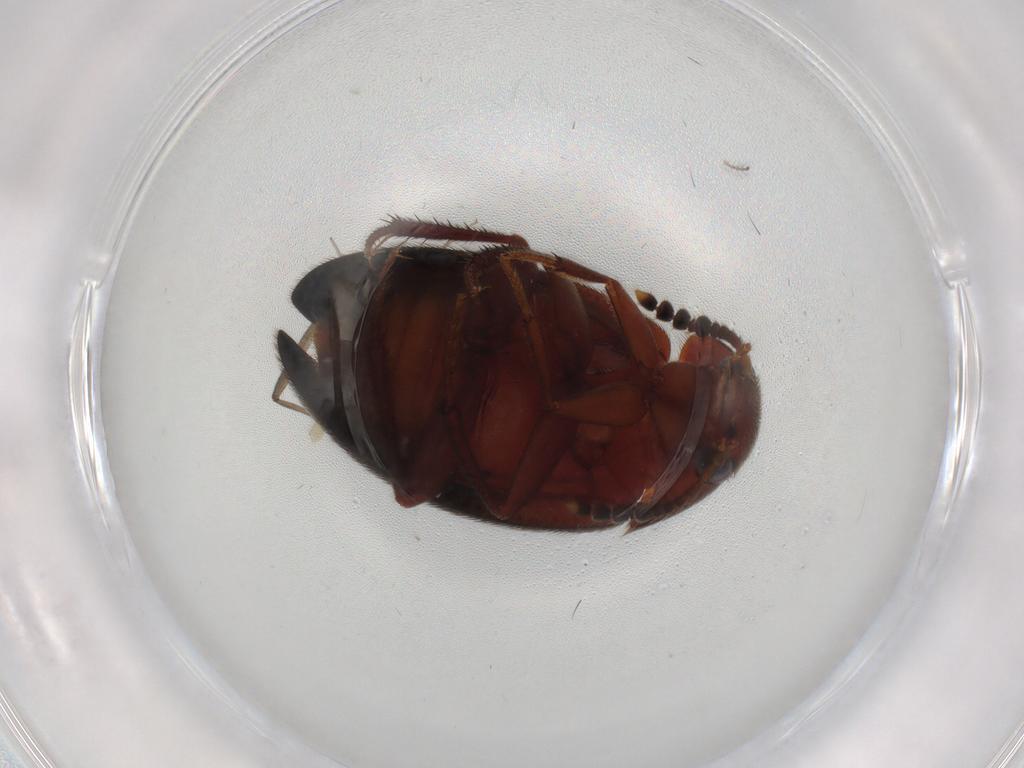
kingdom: Animalia
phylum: Arthropoda
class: Insecta
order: Coleoptera
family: Leiodidae
